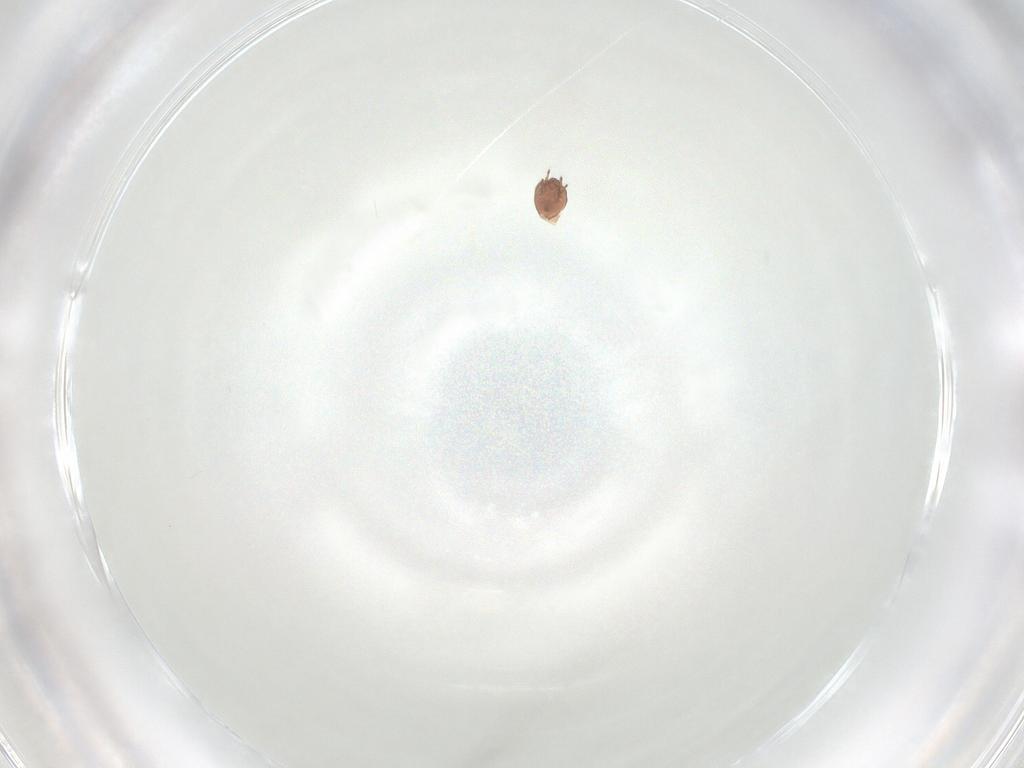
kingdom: Animalia
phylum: Arthropoda
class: Arachnida
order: Sarcoptiformes
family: Scheloribatidae
